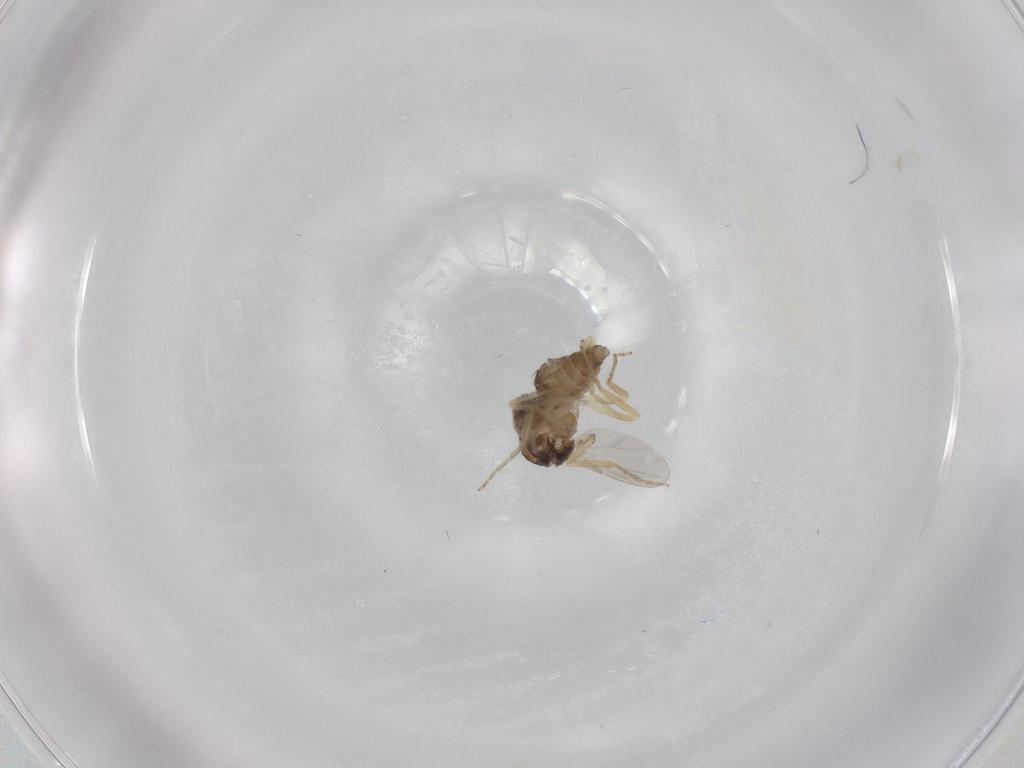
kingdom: Animalia
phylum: Arthropoda
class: Insecta
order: Diptera
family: Ceratopogonidae
